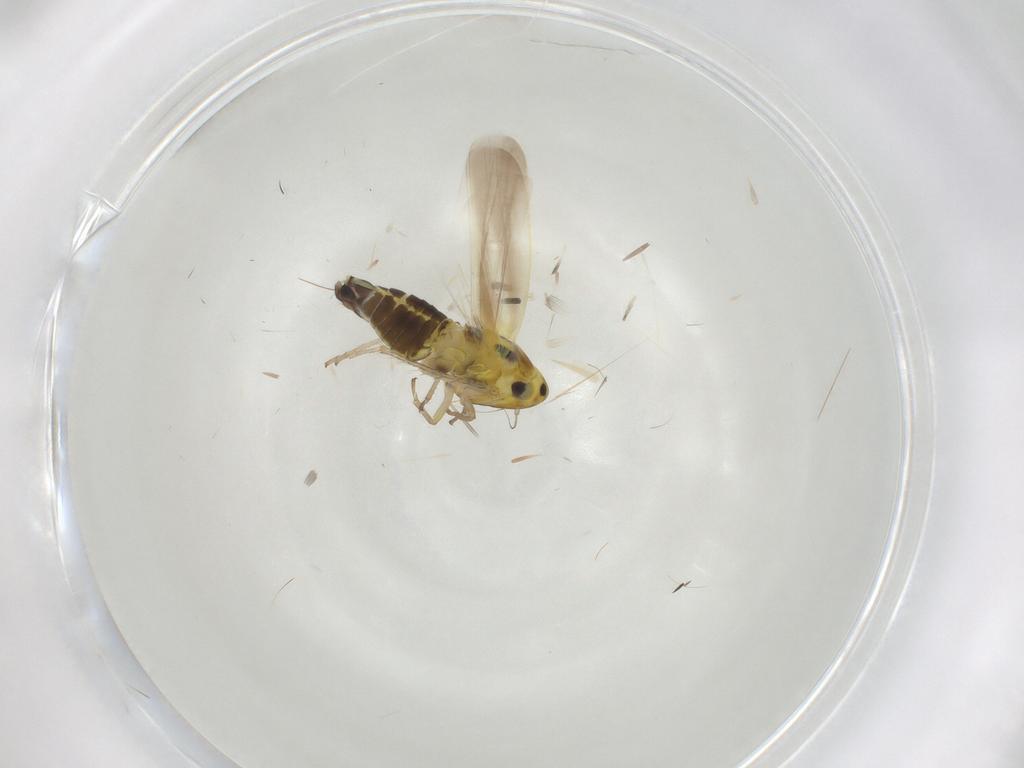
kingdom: Animalia
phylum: Arthropoda
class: Insecta
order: Hemiptera
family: Cicadellidae
